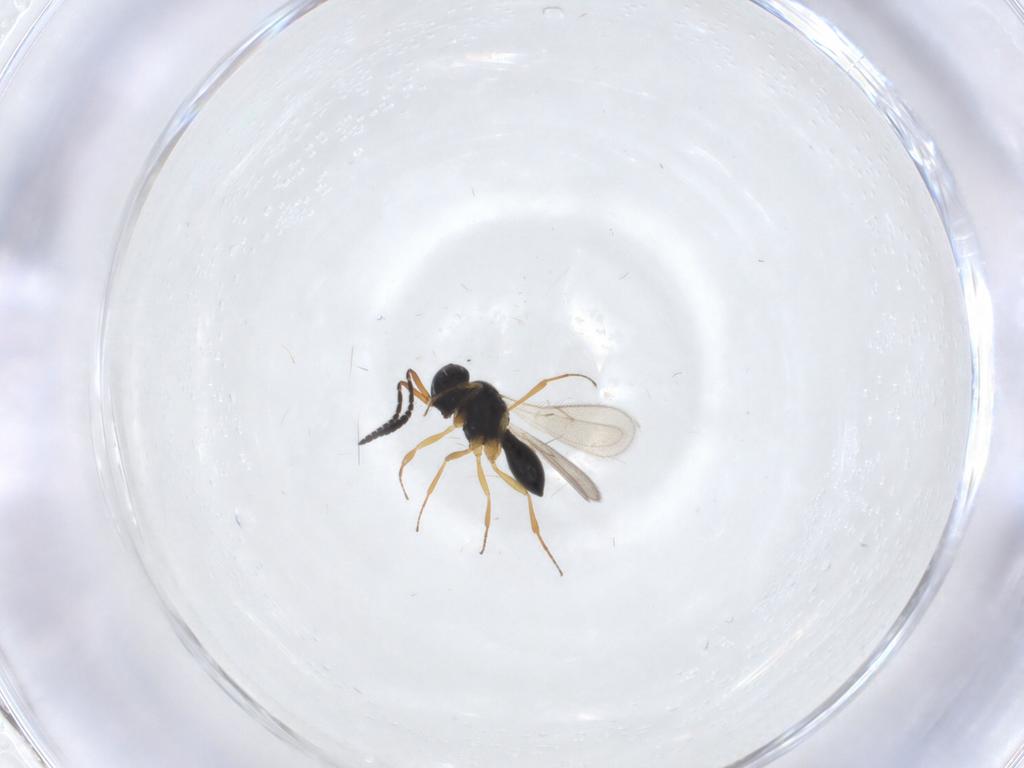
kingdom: Animalia
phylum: Arthropoda
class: Insecta
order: Hymenoptera
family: Scelionidae
